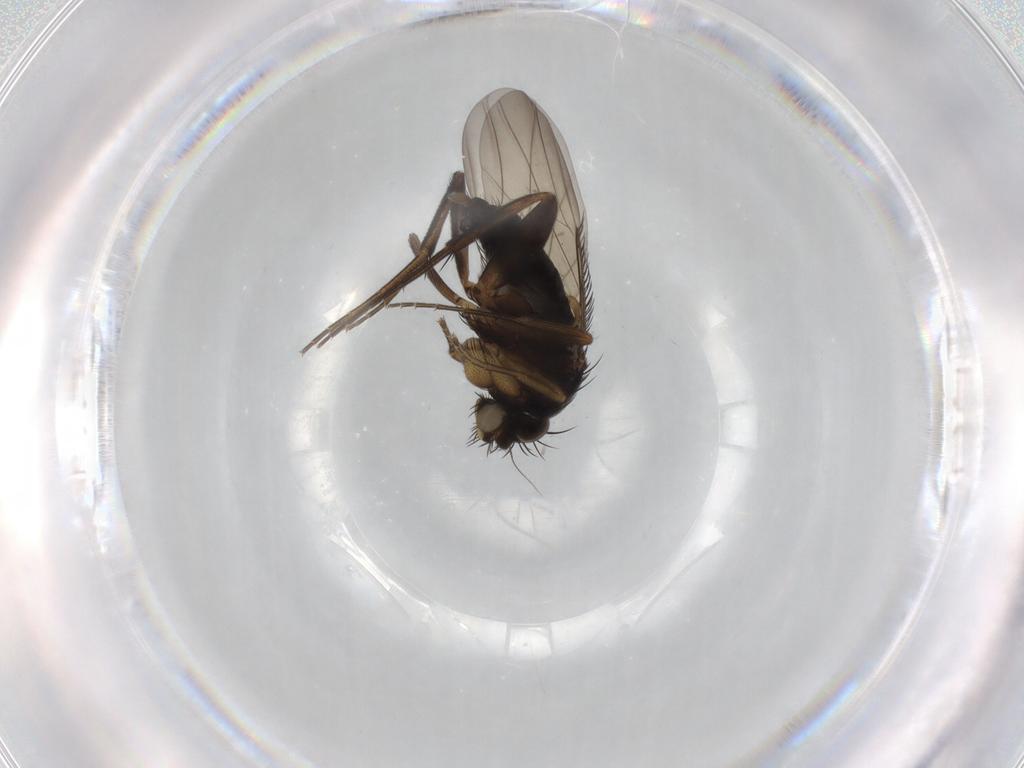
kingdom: Animalia
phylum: Arthropoda
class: Insecta
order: Diptera
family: Phoridae
